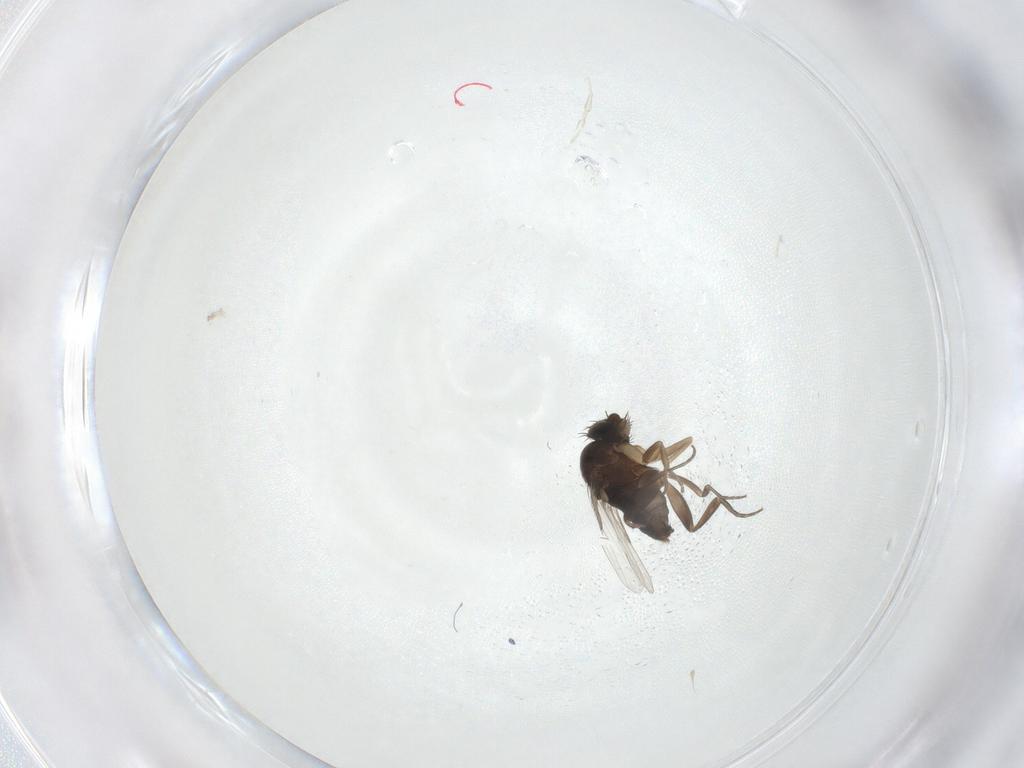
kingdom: Animalia
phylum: Arthropoda
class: Insecta
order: Diptera
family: Phoridae
